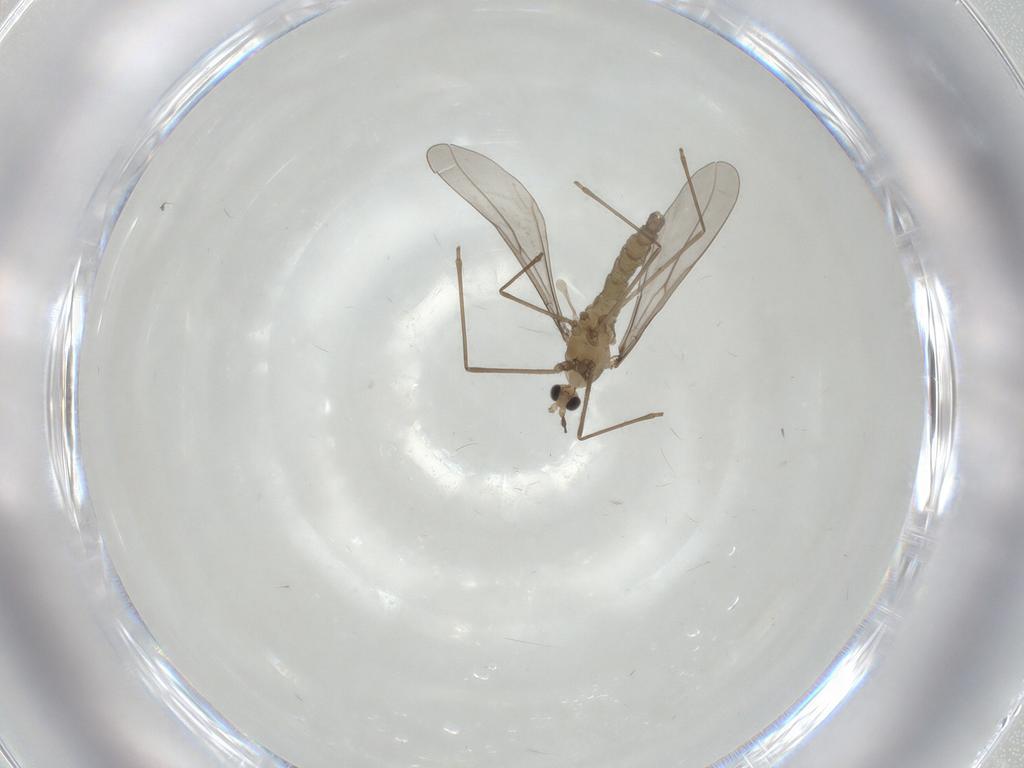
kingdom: Animalia
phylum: Arthropoda
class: Insecta
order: Diptera
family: Cecidomyiidae
